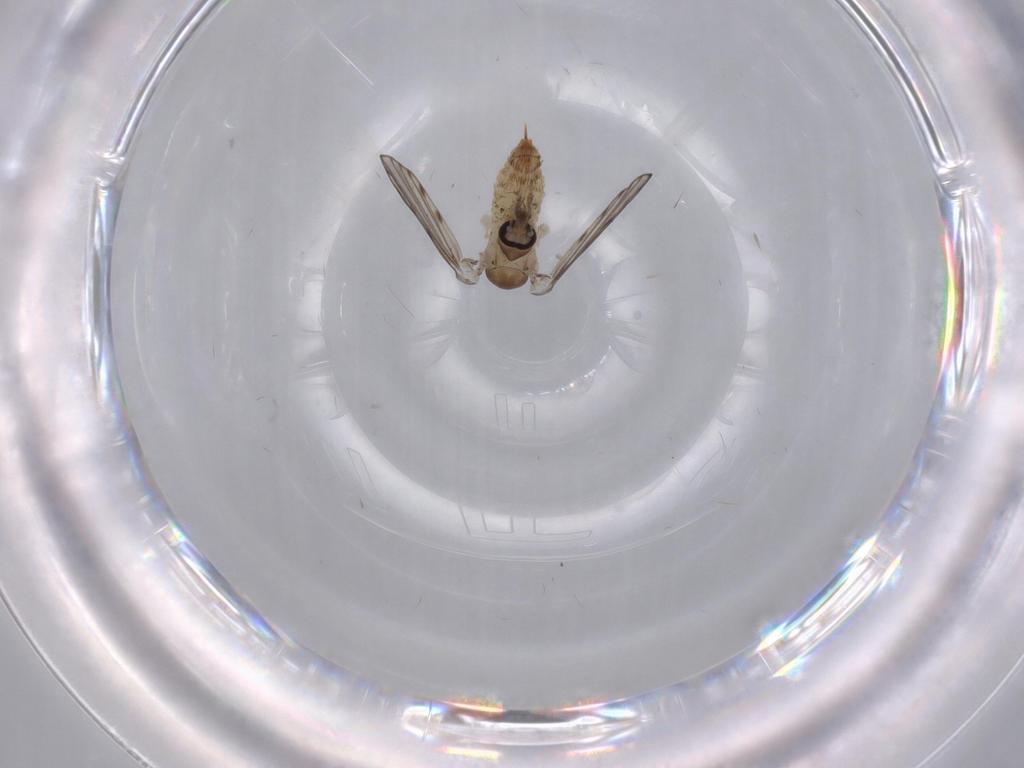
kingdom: Animalia
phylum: Arthropoda
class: Insecta
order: Diptera
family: Psychodidae
